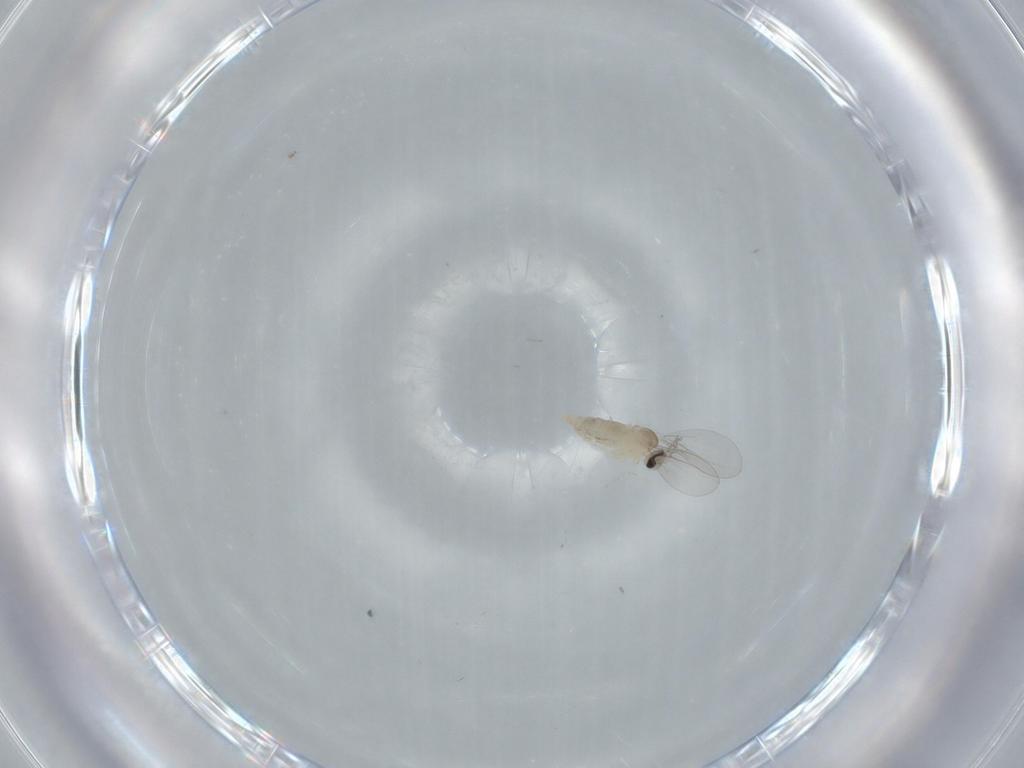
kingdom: Animalia
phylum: Arthropoda
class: Insecta
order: Diptera
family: Cecidomyiidae
